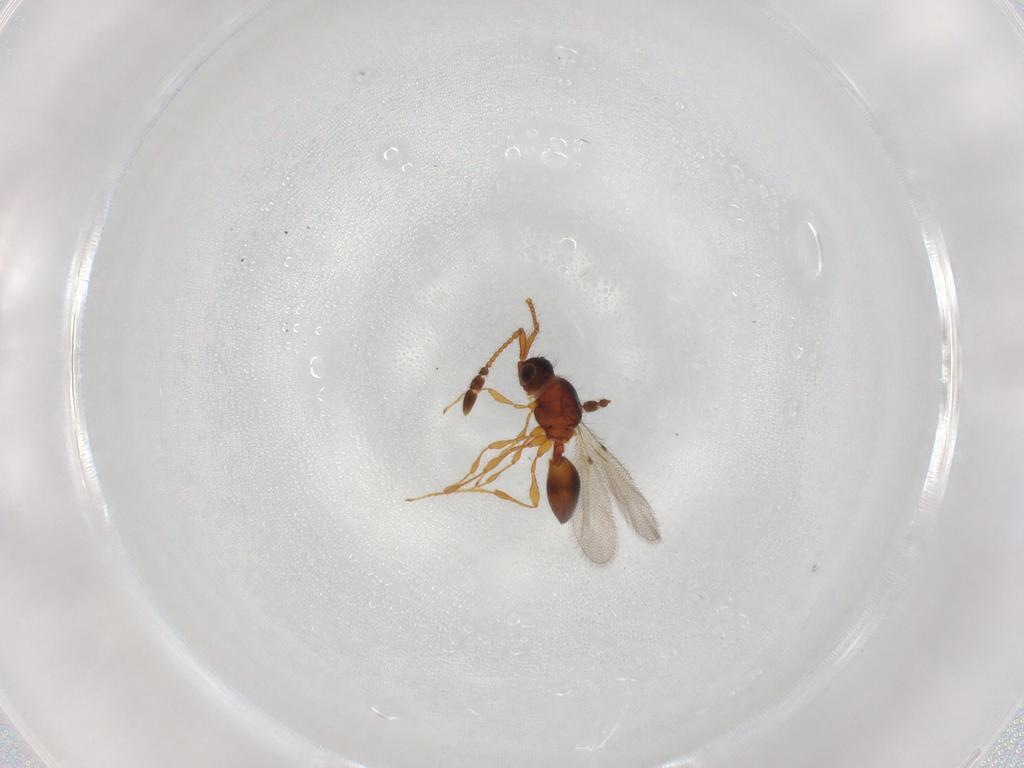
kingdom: Animalia
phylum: Arthropoda
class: Insecta
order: Hymenoptera
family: Diapriidae
